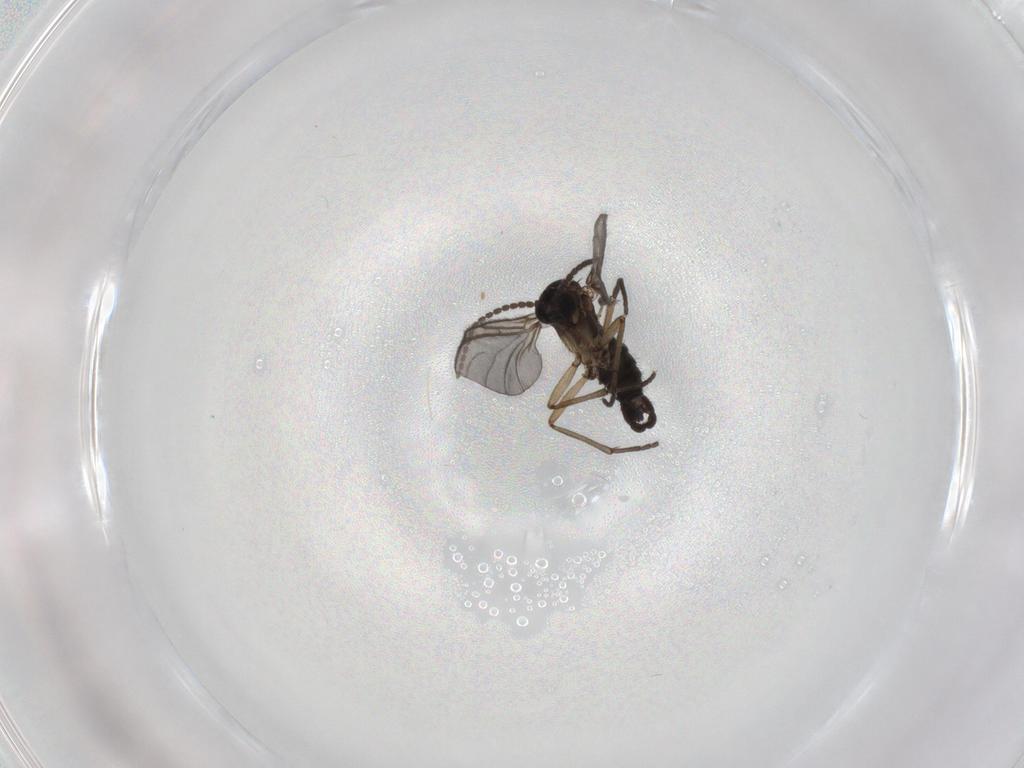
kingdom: Animalia
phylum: Arthropoda
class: Insecta
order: Diptera
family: Sciaridae
